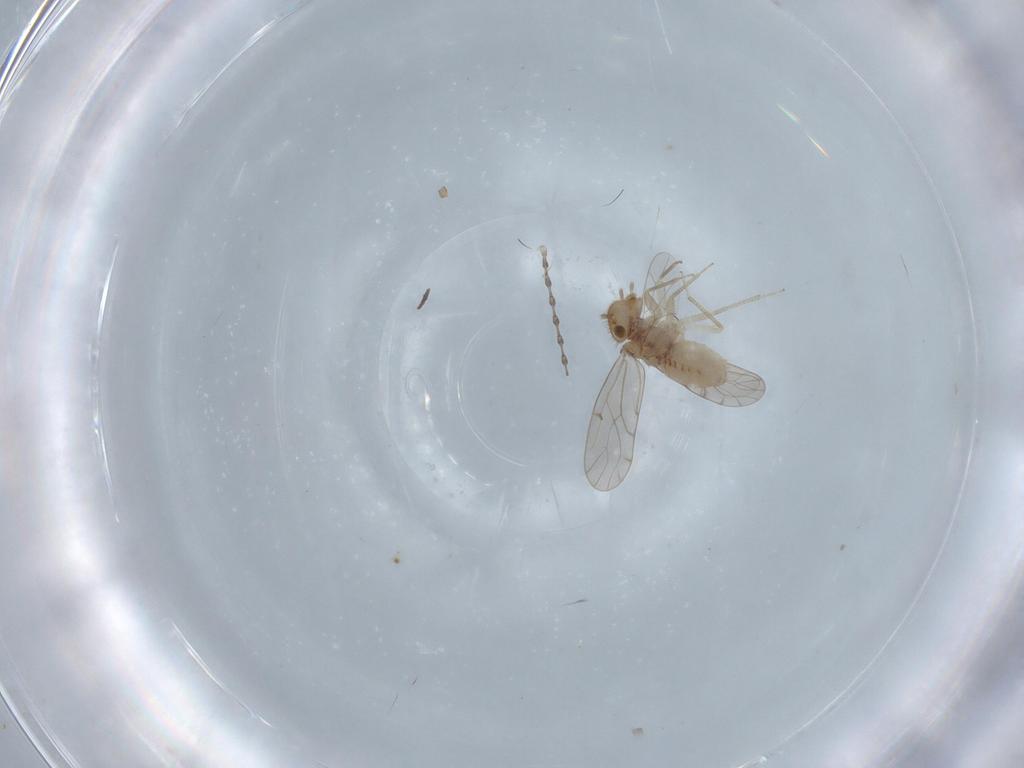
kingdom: Animalia
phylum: Arthropoda
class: Insecta
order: Psocodea
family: Ectopsocidae
